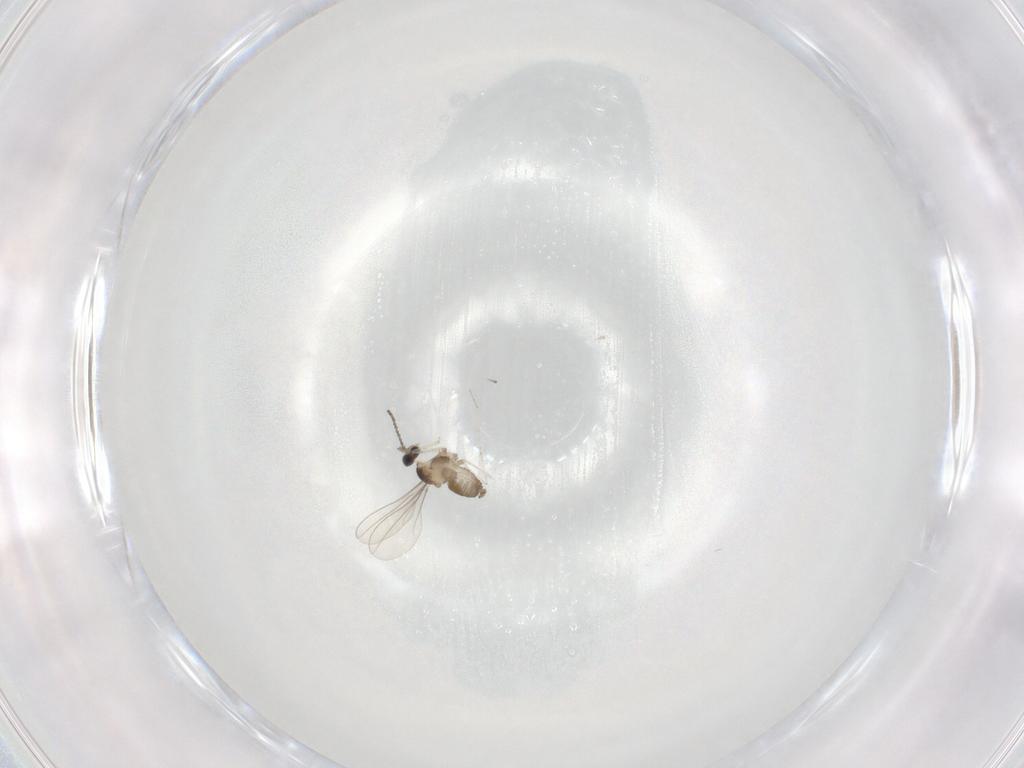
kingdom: Animalia
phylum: Arthropoda
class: Insecta
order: Diptera
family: Cecidomyiidae
